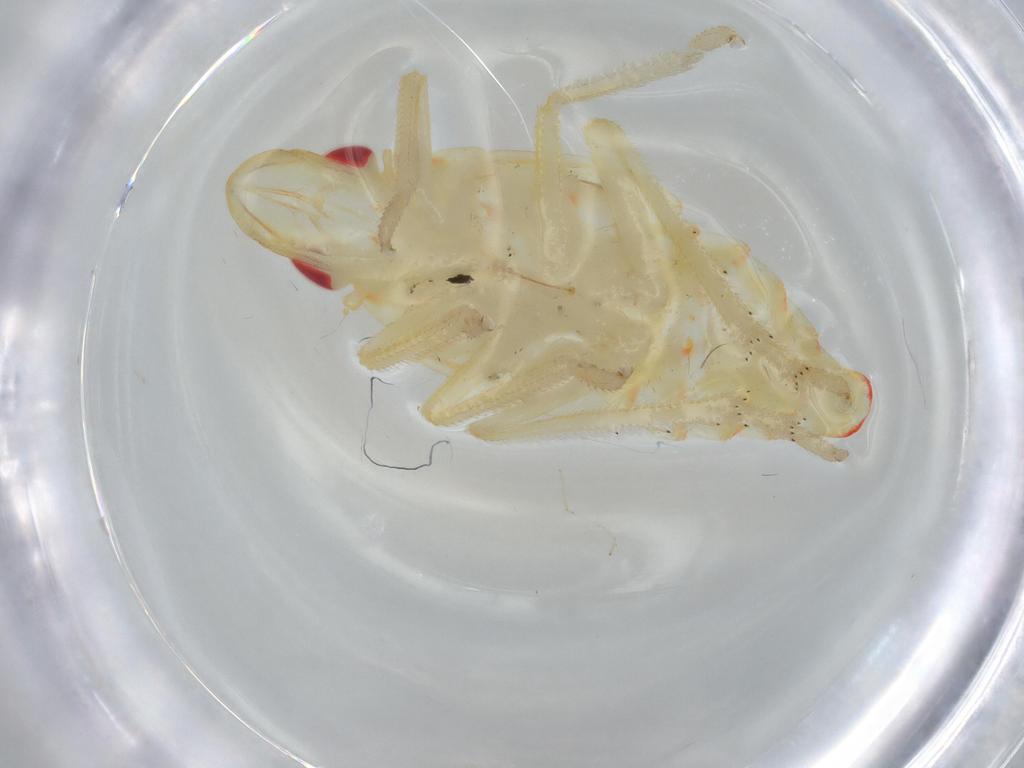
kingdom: Animalia
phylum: Arthropoda
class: Insecta
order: Hemiptera
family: Tropiduchidae
